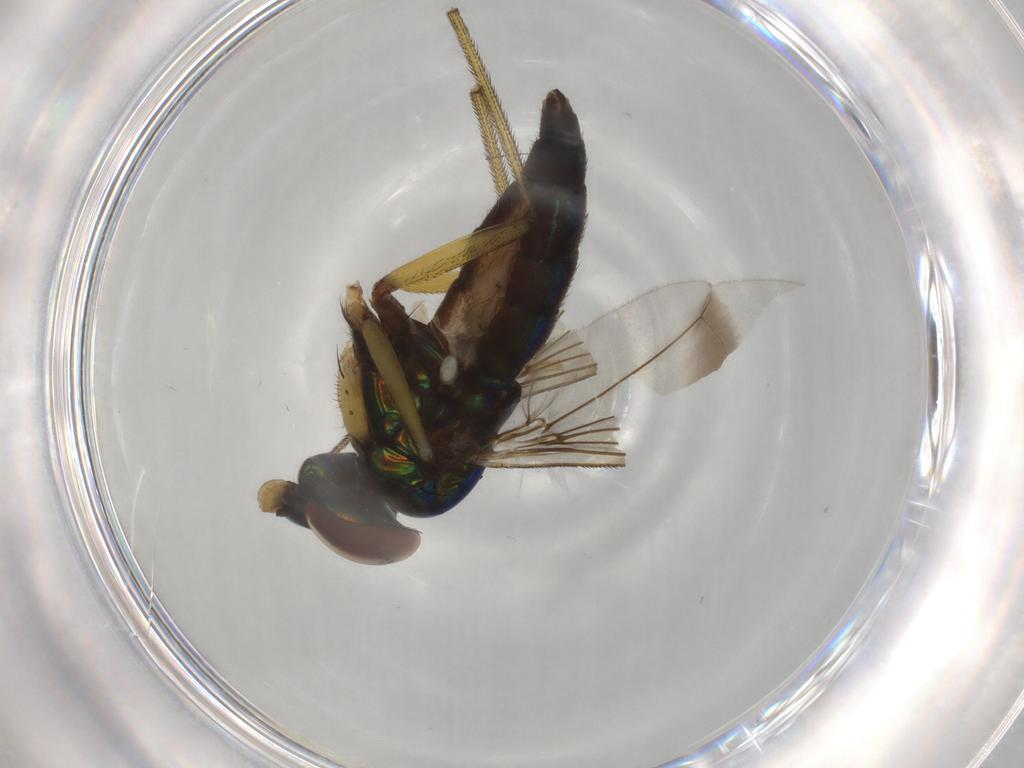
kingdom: Animalia
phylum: Arthropoda
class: Insecta
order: Diptera
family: Dolichopodidae
